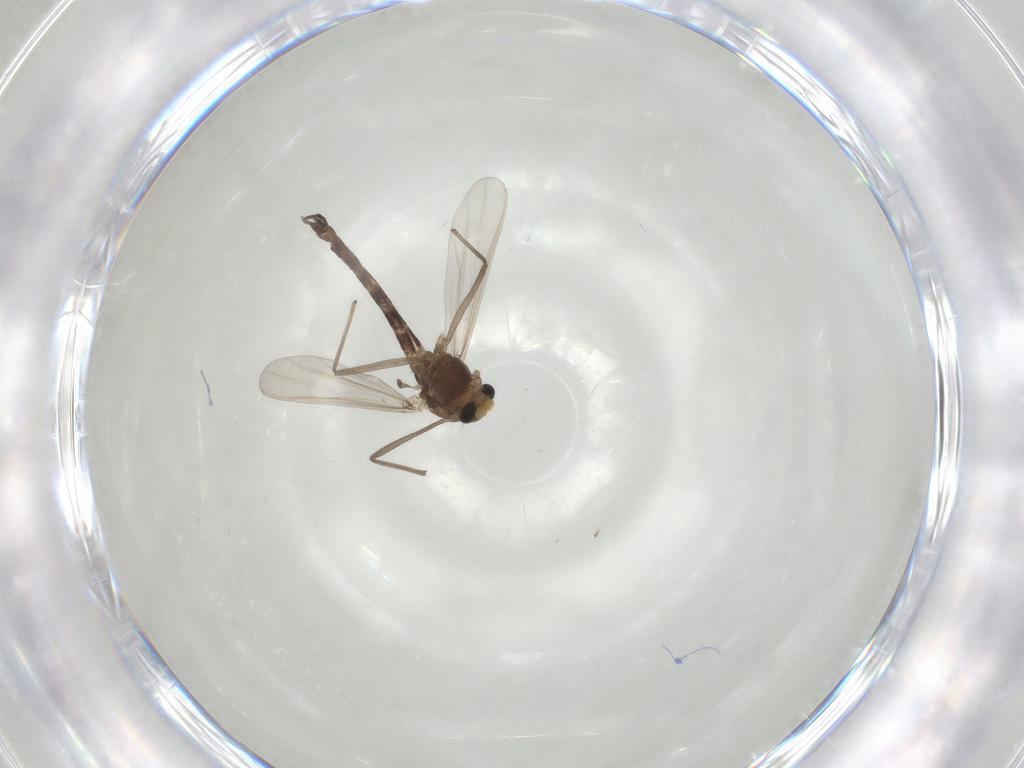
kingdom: Animalia
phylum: Arthropoda
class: Insecta
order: Diptera
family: Chironomidae
